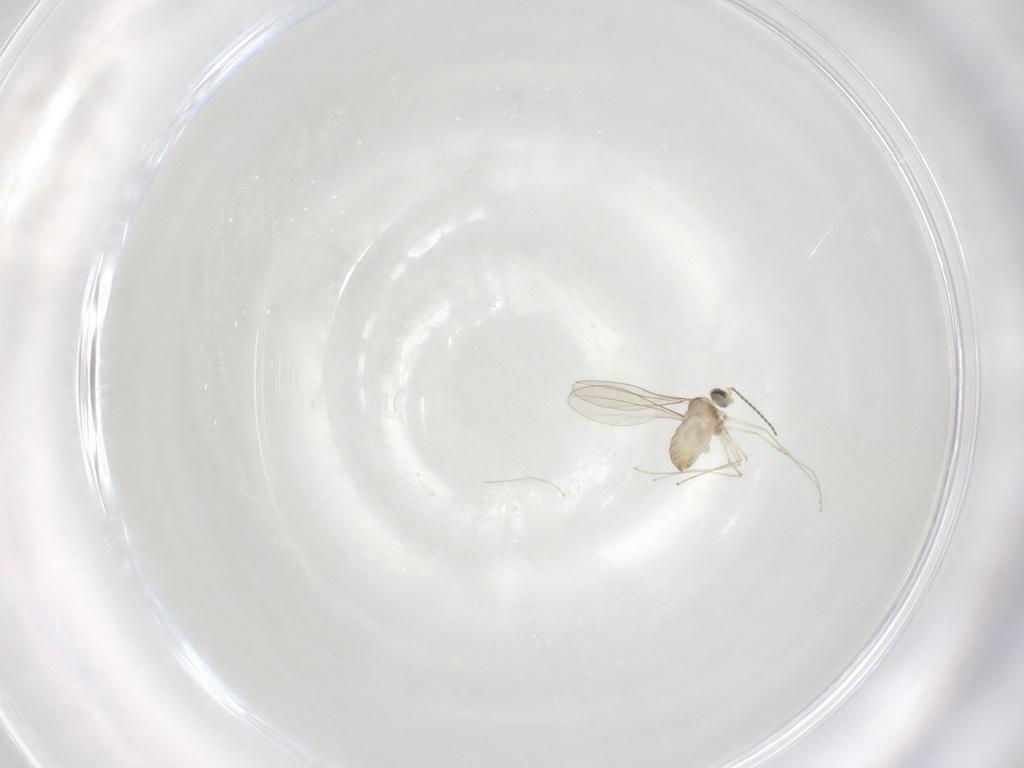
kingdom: Animalia
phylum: Arthropoda
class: Insecta
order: Diptera
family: Cecidomyiidae
